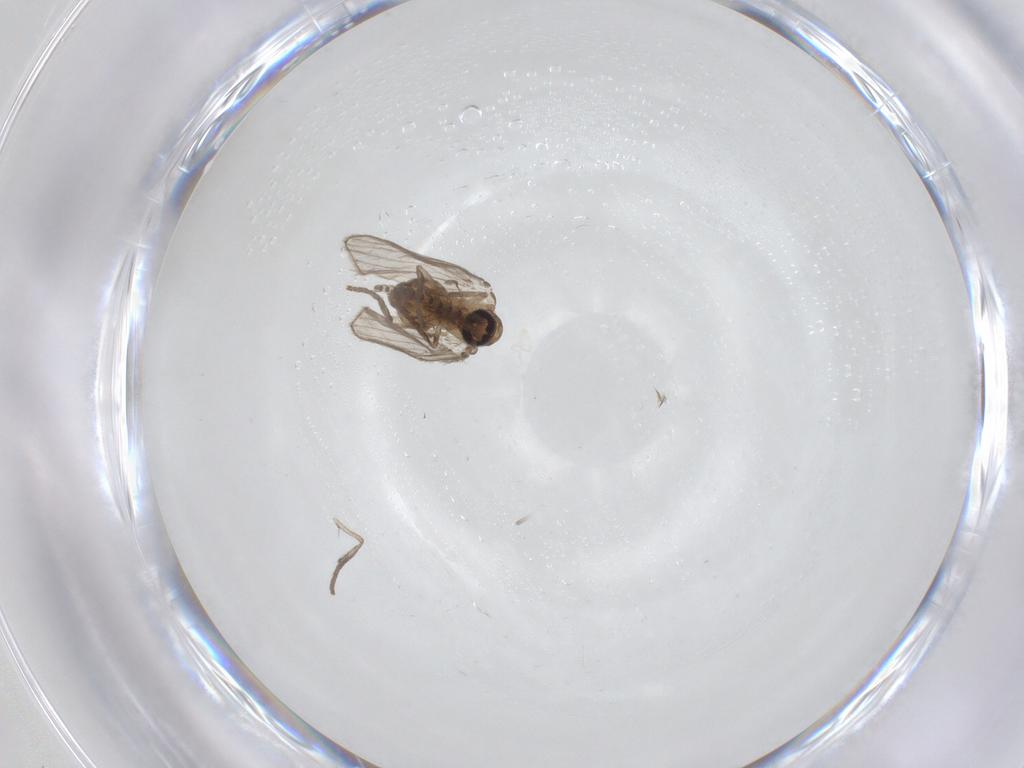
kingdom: Animalia
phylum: Arthropoda
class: Insecta
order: Diptera
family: Psychodidae
